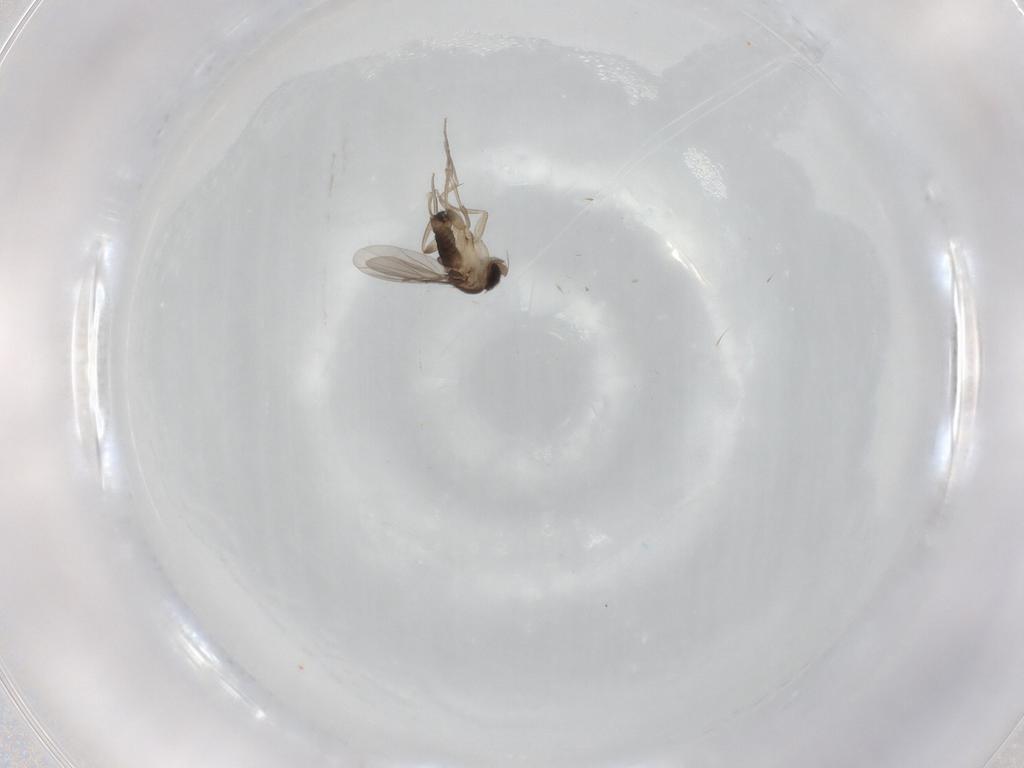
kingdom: Animalia
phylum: Arthropoda
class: Insecta
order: Diptera
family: Phoridae
